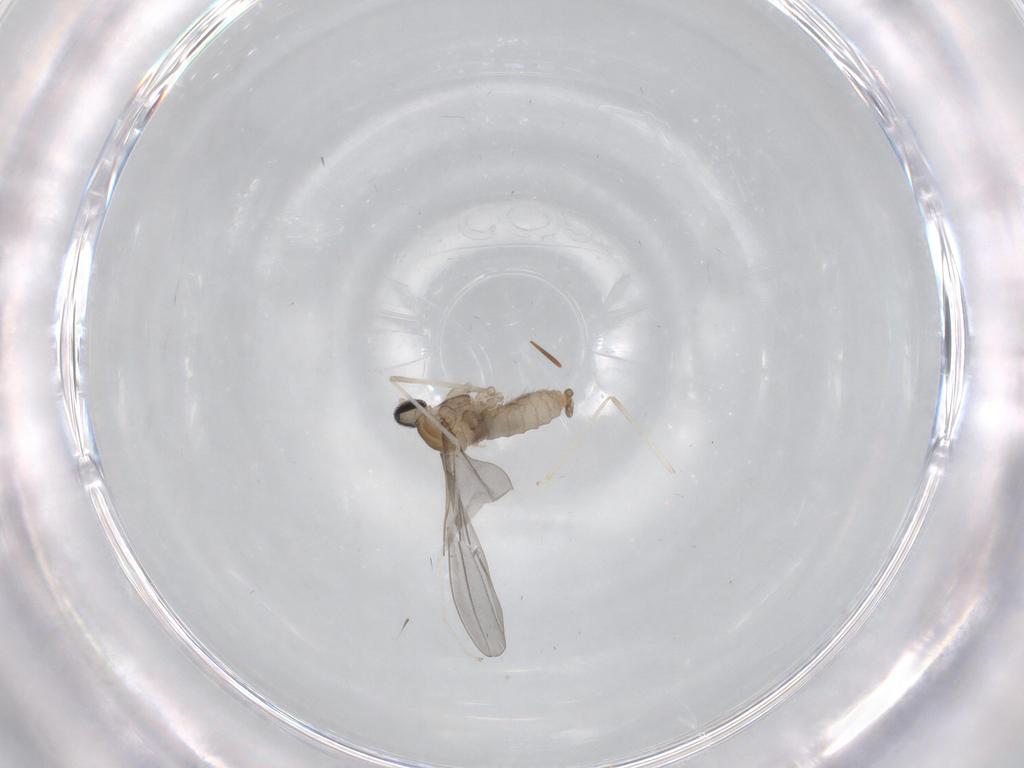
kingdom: Animalia
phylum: Arthropoda
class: Insecta
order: Diptera
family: Cecidomyiidae
